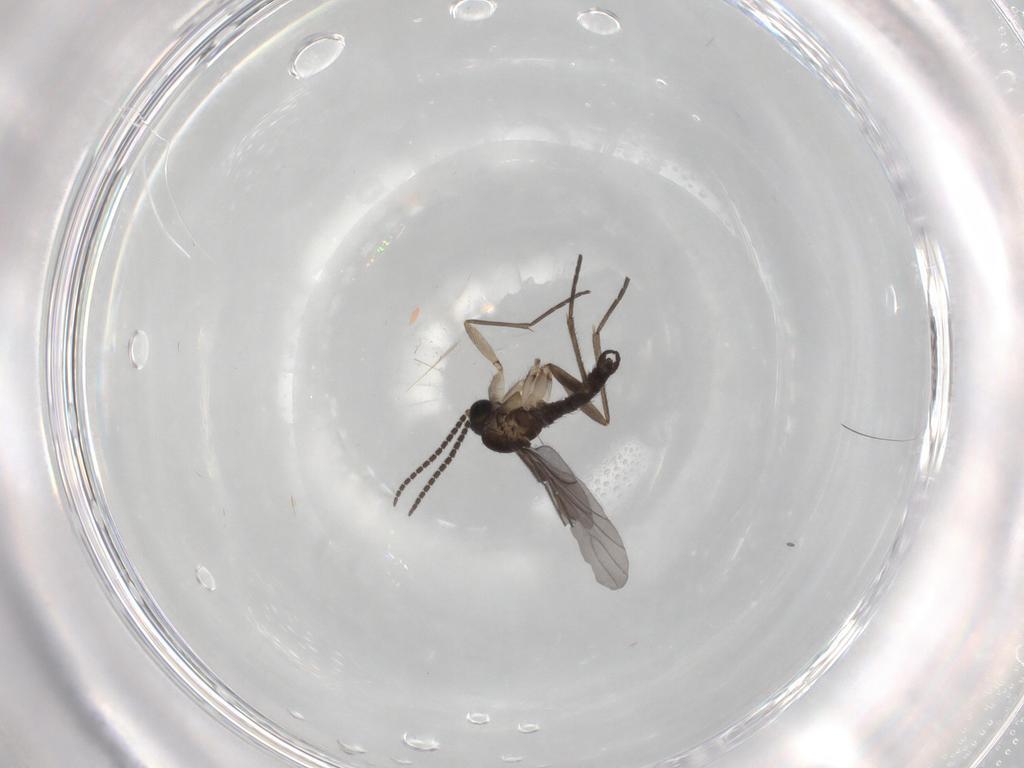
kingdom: Animalia
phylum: Arthropoda
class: Insecta
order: Diptera
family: Sciaridae
